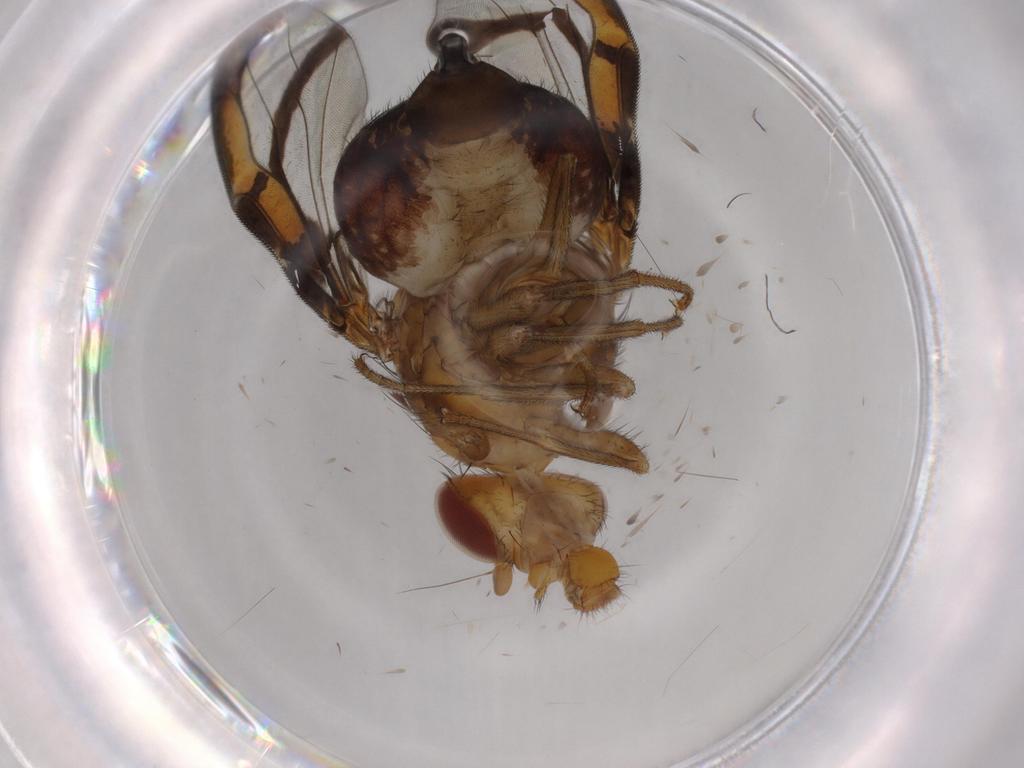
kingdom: Animalia
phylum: Arthropoda
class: Insecta
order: Diptera
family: Ulidiidae
